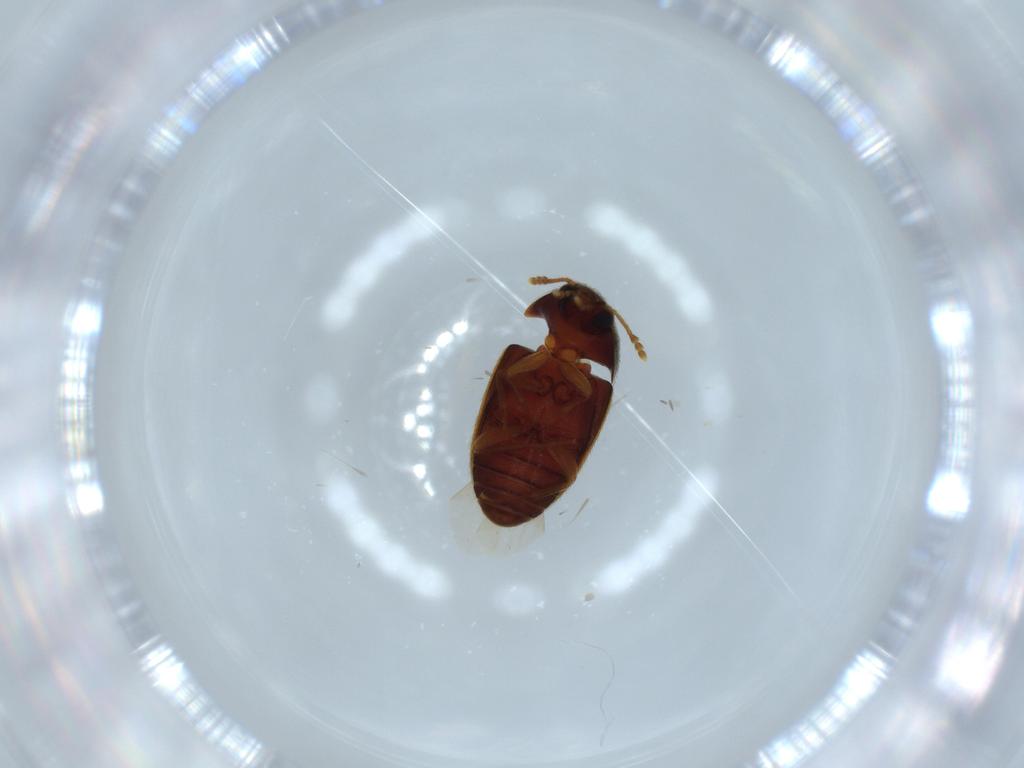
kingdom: Animalia
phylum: Arthropoda
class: Insecta
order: Coleoptera
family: Mycetophagidae
